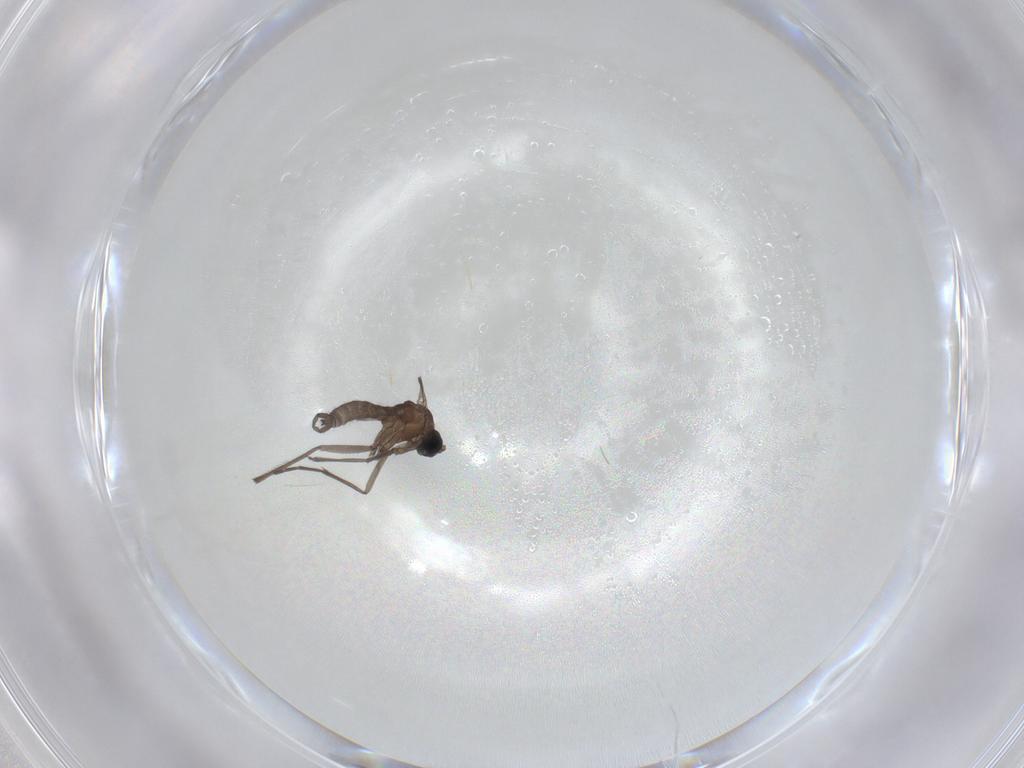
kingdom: Animalia
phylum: Arthropoda
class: Insecta
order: Diptera
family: Sciaridae
